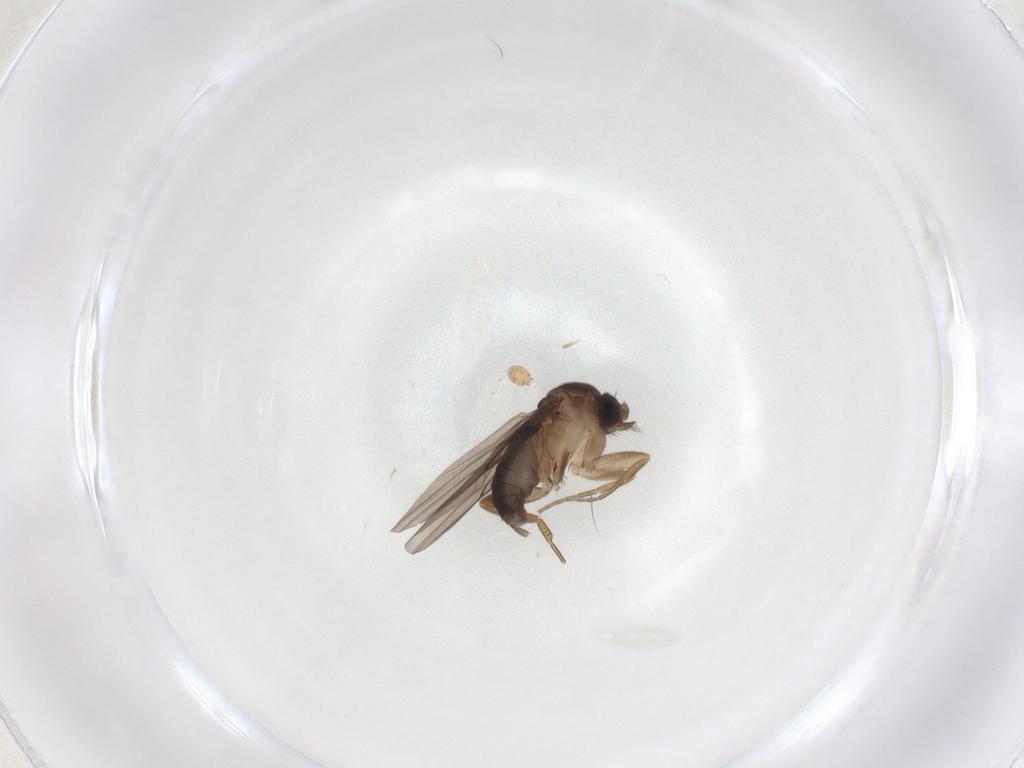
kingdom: Animalia
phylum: Arthropoda
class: Insecta
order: Diptera
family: Phoridae
